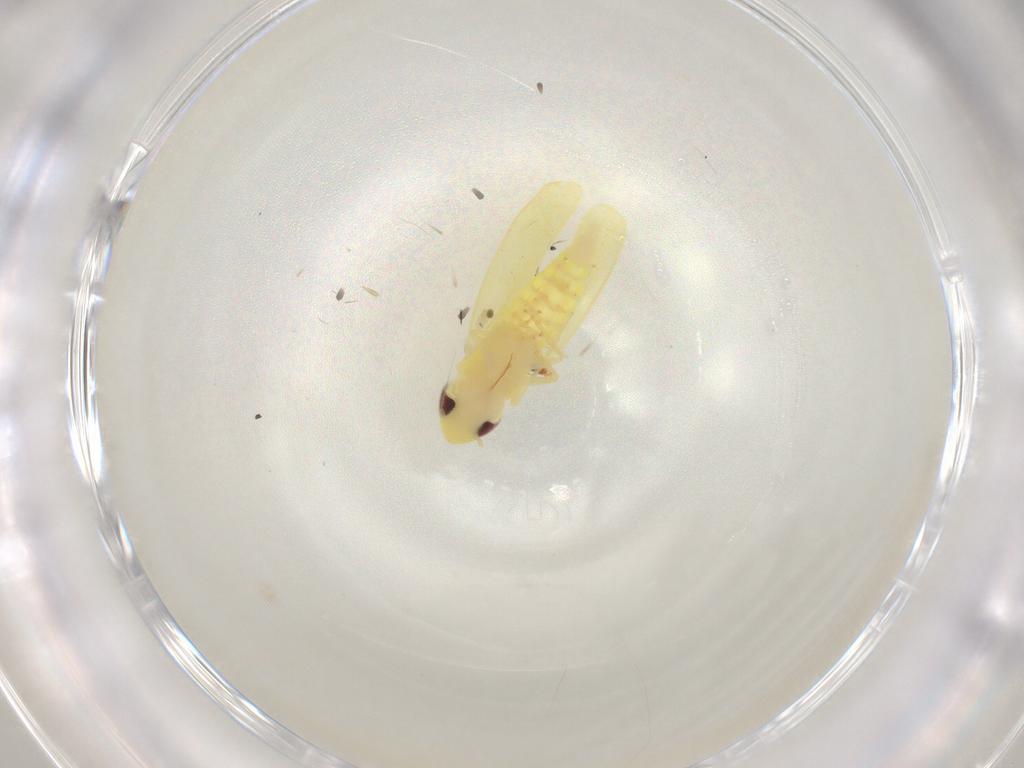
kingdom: Animalia
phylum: Arthropoda
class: Insecta
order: Hemiptera
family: Cicadellidae
